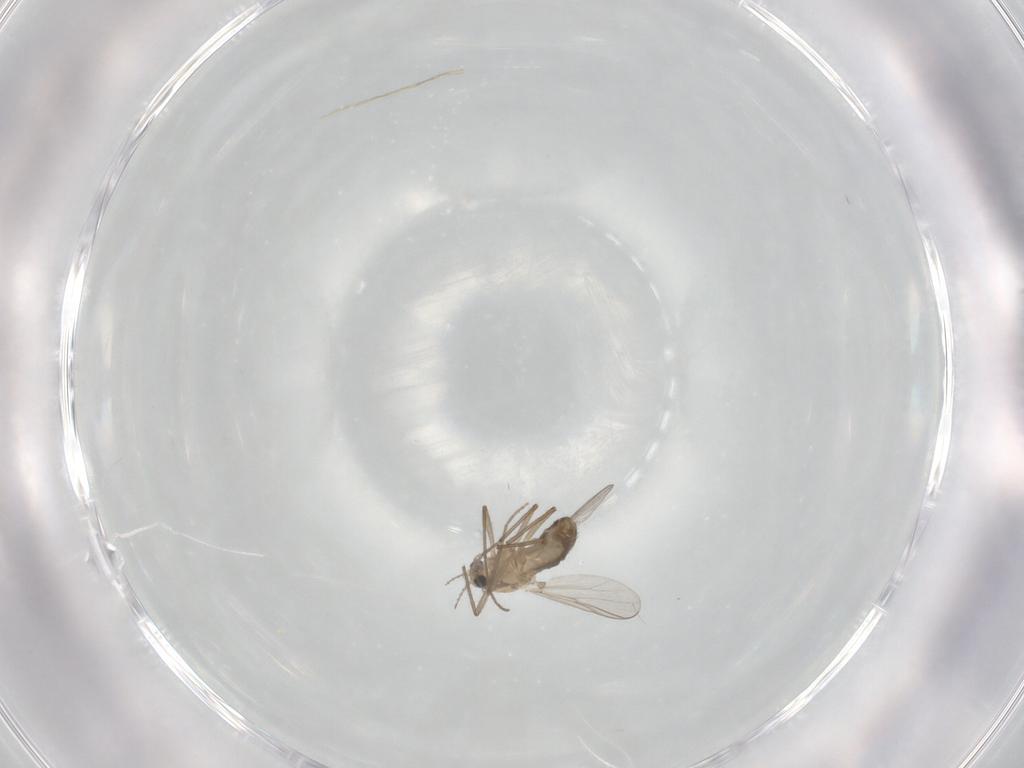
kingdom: Animalia
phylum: Arthropoda
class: Insecta
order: Diptera
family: Chironomidae
